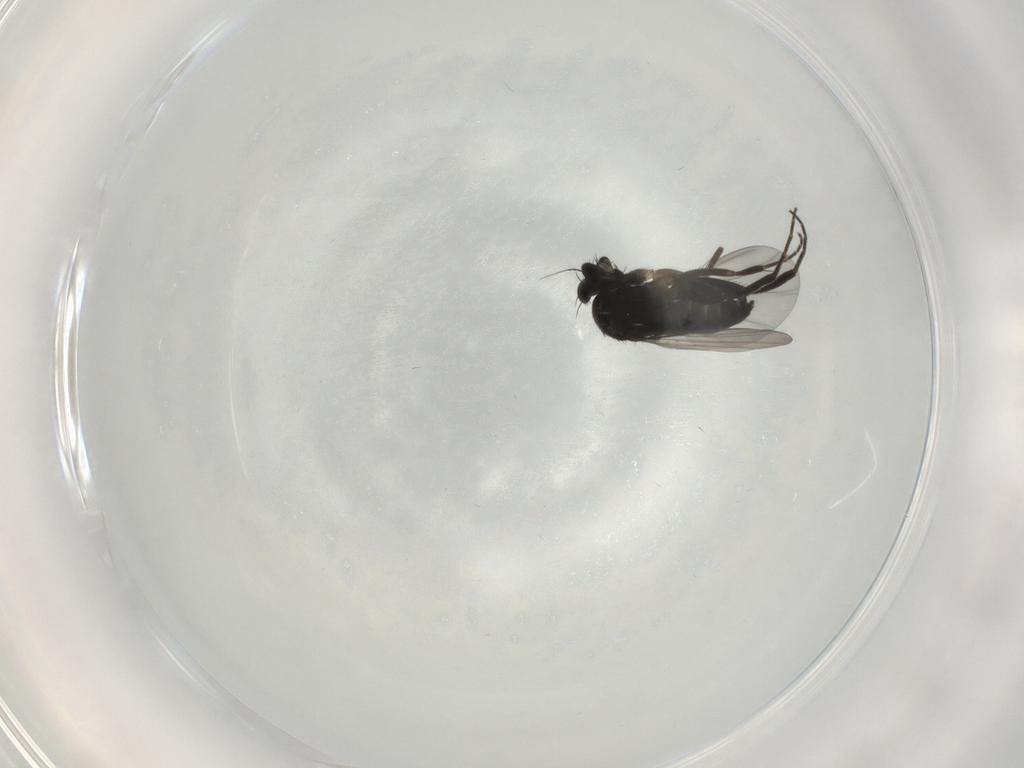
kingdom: Animalia
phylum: Arthropoda
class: Insecta
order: Diptera
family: Phoridae
